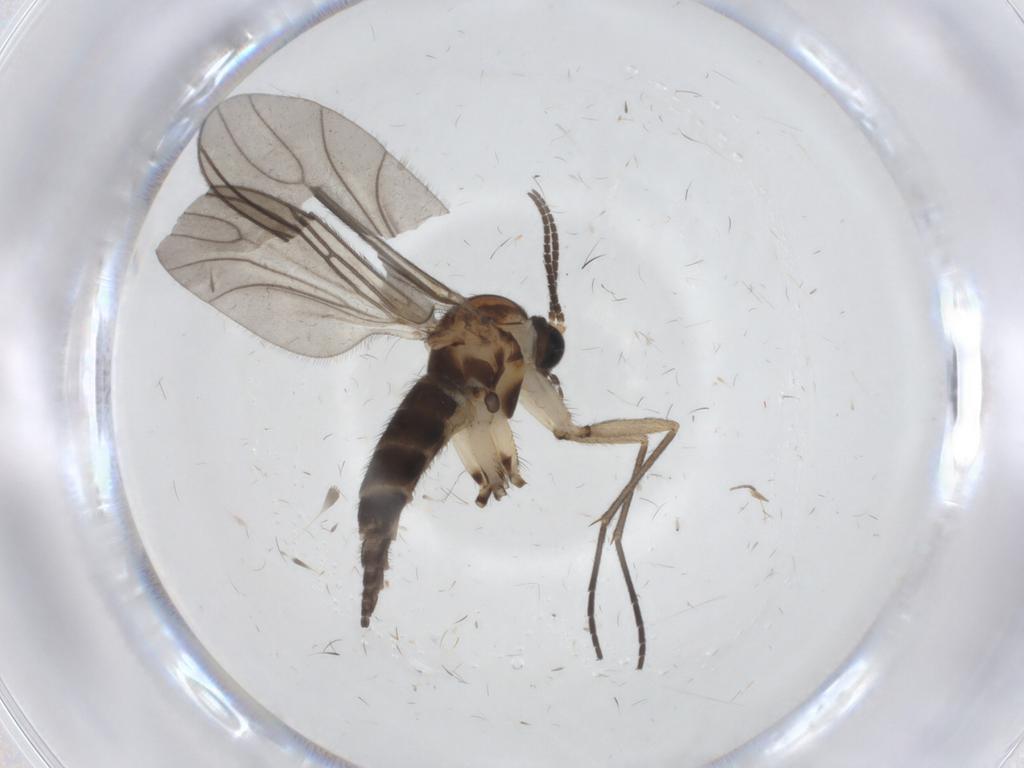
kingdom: Animalia
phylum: Arthropoda
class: Insecta
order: Diptera
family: Sciaridae
